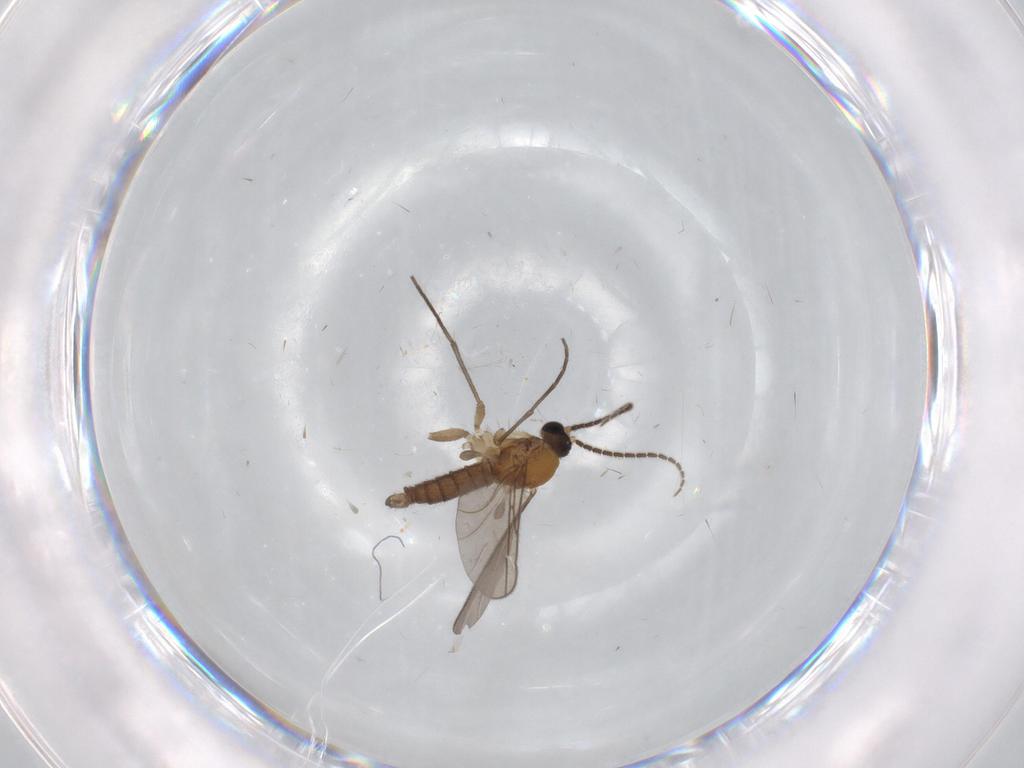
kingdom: Animalia
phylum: Arthropoda
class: Insecta
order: Diptera
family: Sciaridae
